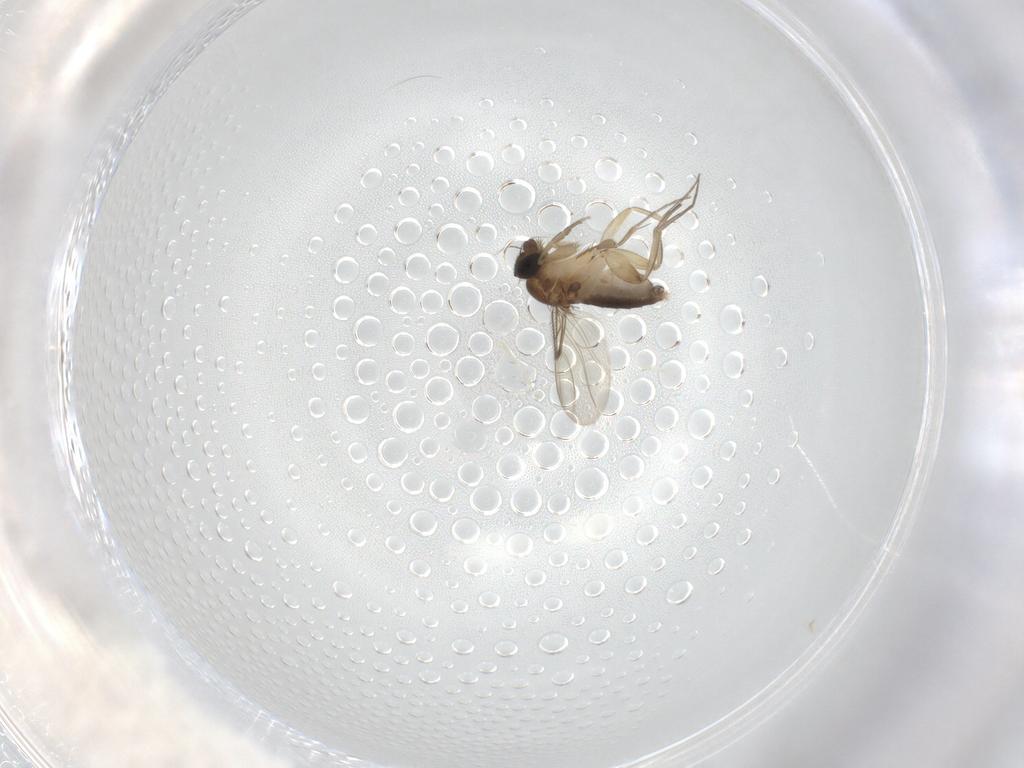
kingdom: Animalia
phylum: Arthropoda
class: Insecta
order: Diptera
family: Phoridae
